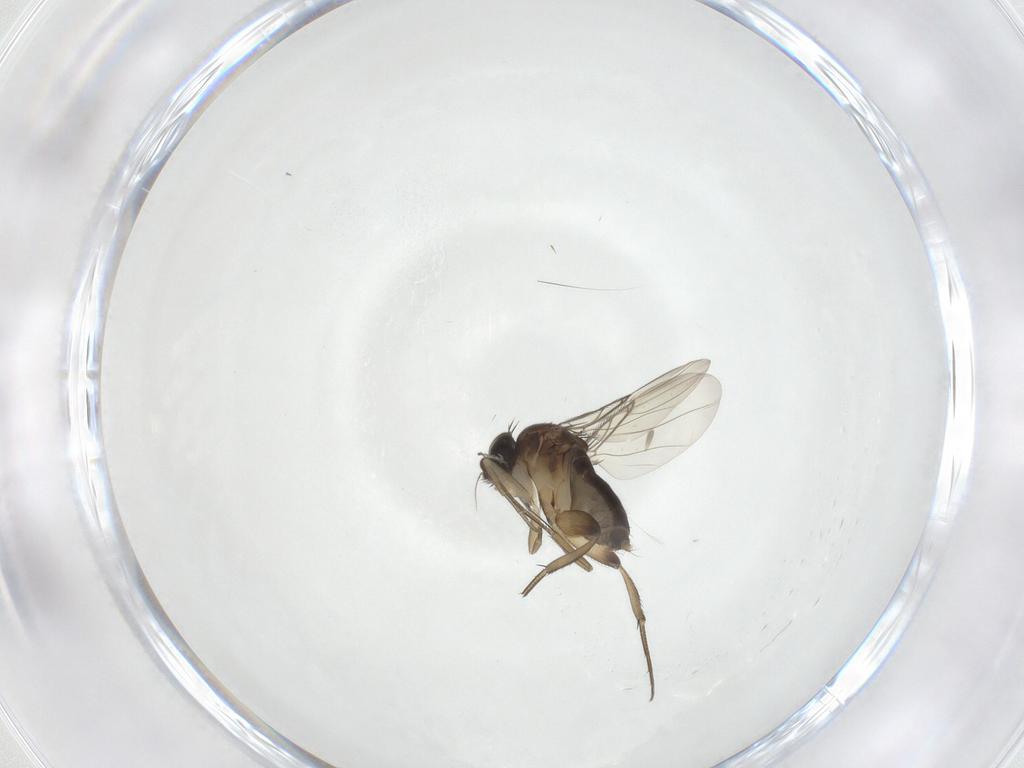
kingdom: Animalia
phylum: Arthropoda
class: Insecta
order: Diptera
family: Phoridae
